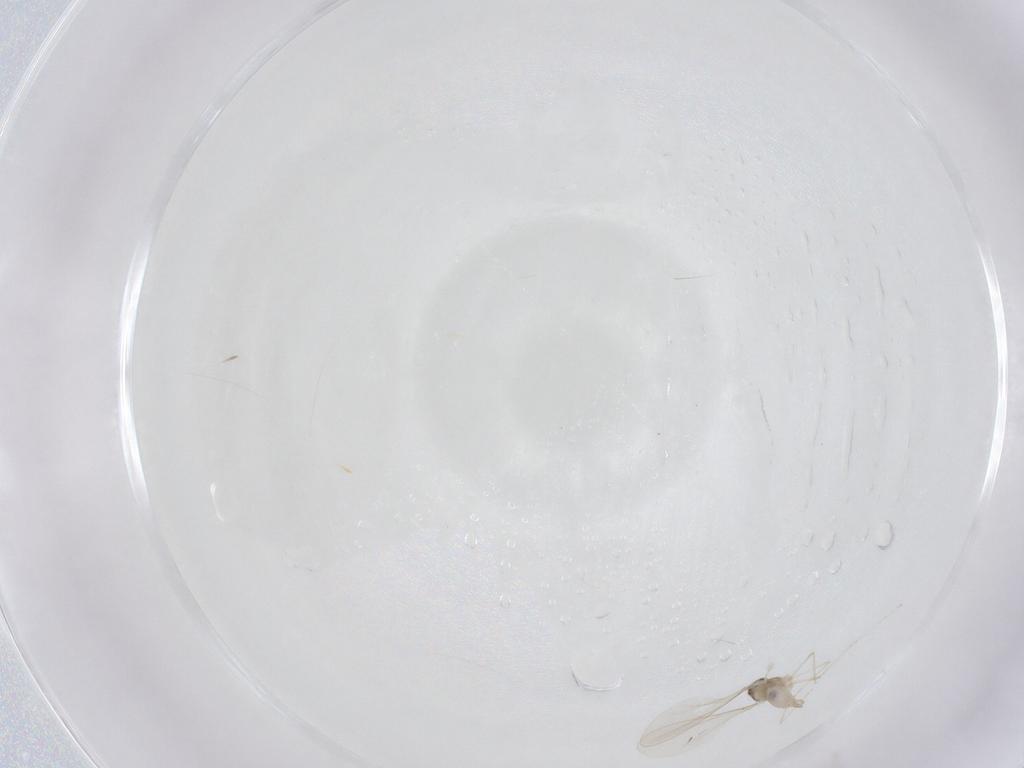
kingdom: Animalia
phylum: Arthropoda
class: Insecta
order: Diptera
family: Cecidomyiidae
